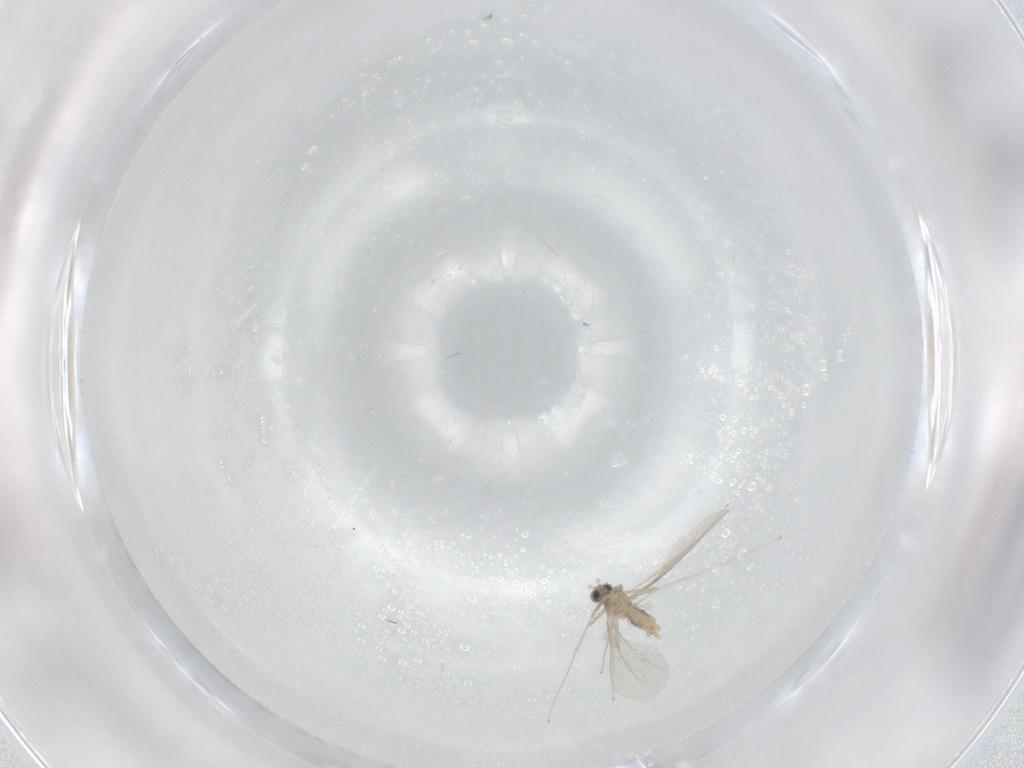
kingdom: Animalia
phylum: Arthropoda
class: Insecta
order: Diptera
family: Cecidomyiidae
